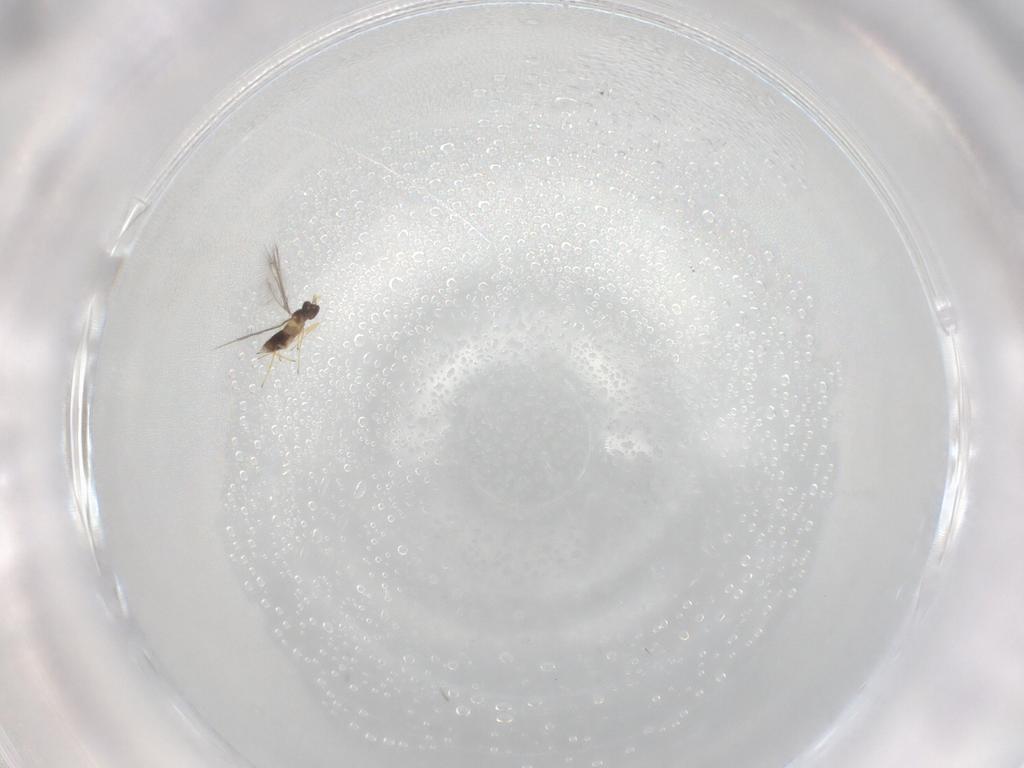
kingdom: Animalia
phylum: Arthropoda
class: Insecta
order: Hymenoptera
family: Mymaridae
